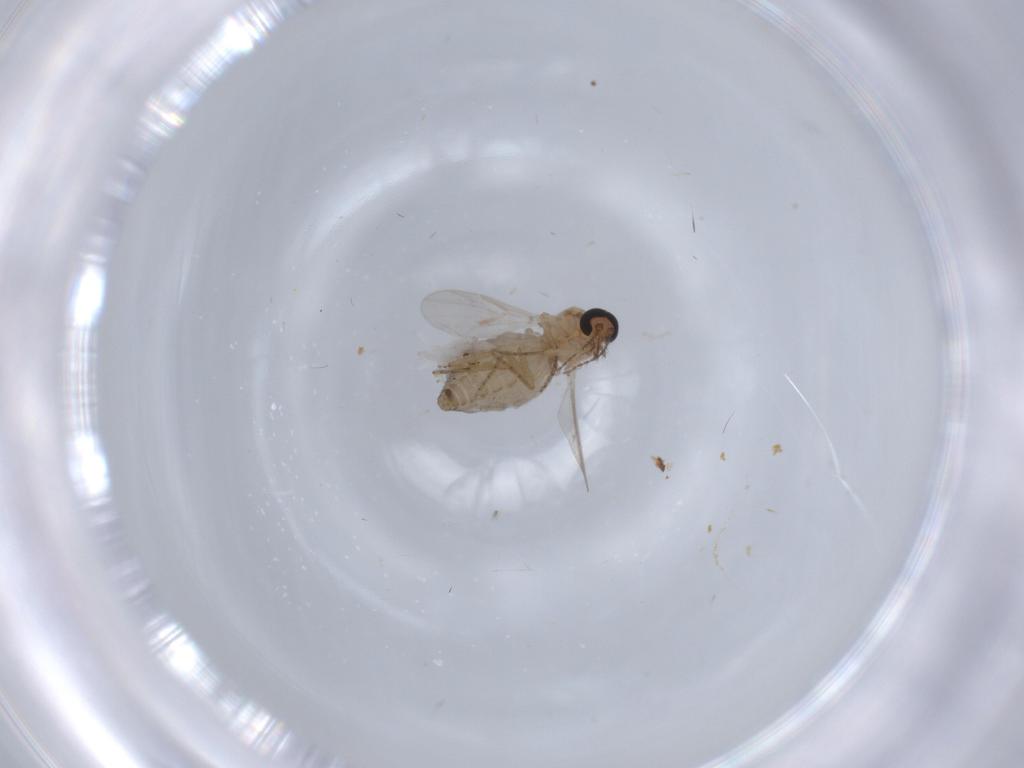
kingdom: Animalia
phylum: Arthropoda
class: Insecta
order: Diptera
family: Ceratopogonidae
